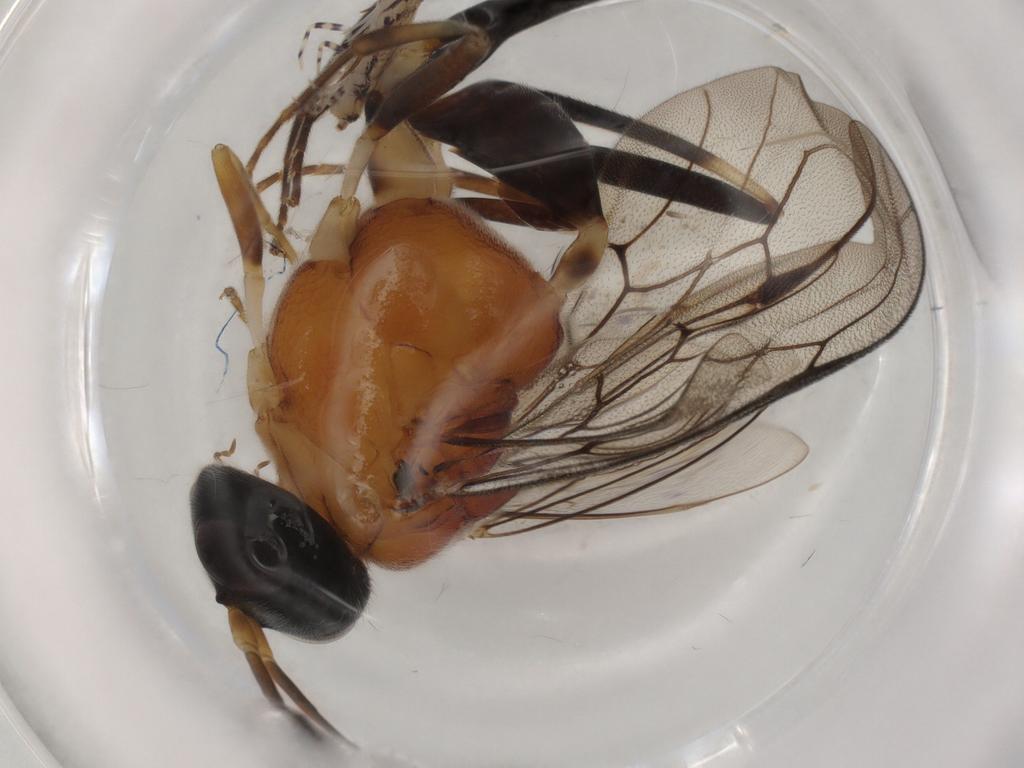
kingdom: Animalia
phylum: Arthropoda
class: Insecta
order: Hymenoptera
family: Evaniidae
